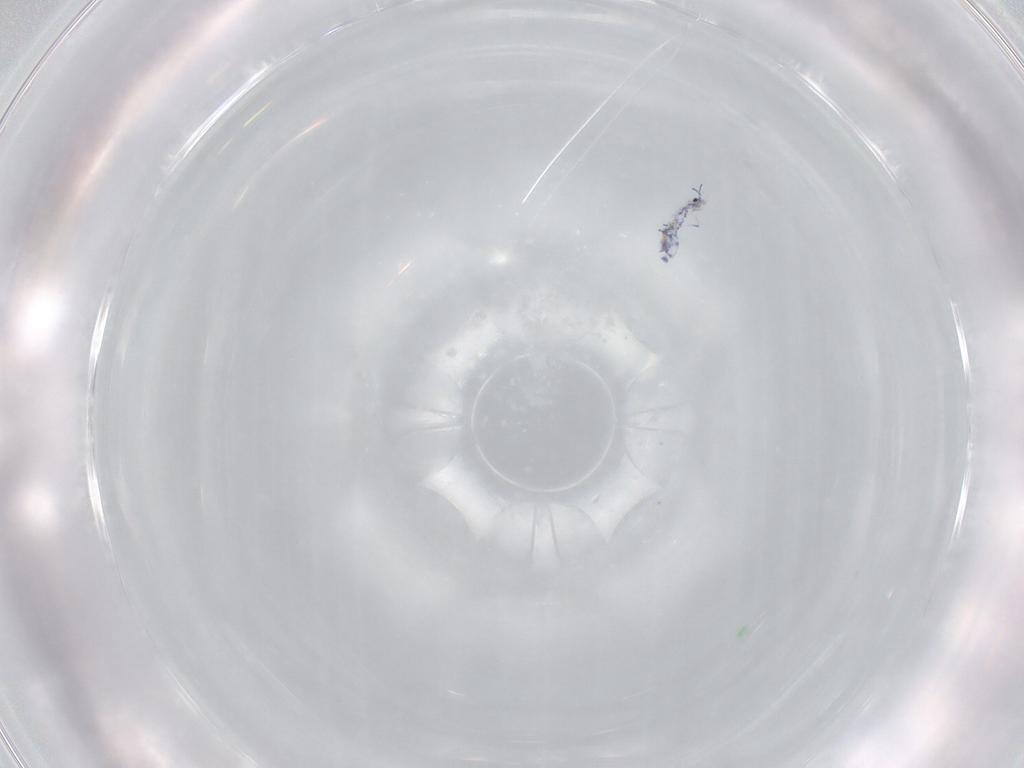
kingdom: Animalia
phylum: Arthropoda
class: Collembola
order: Entomobryomorpha
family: Entomobryidae
